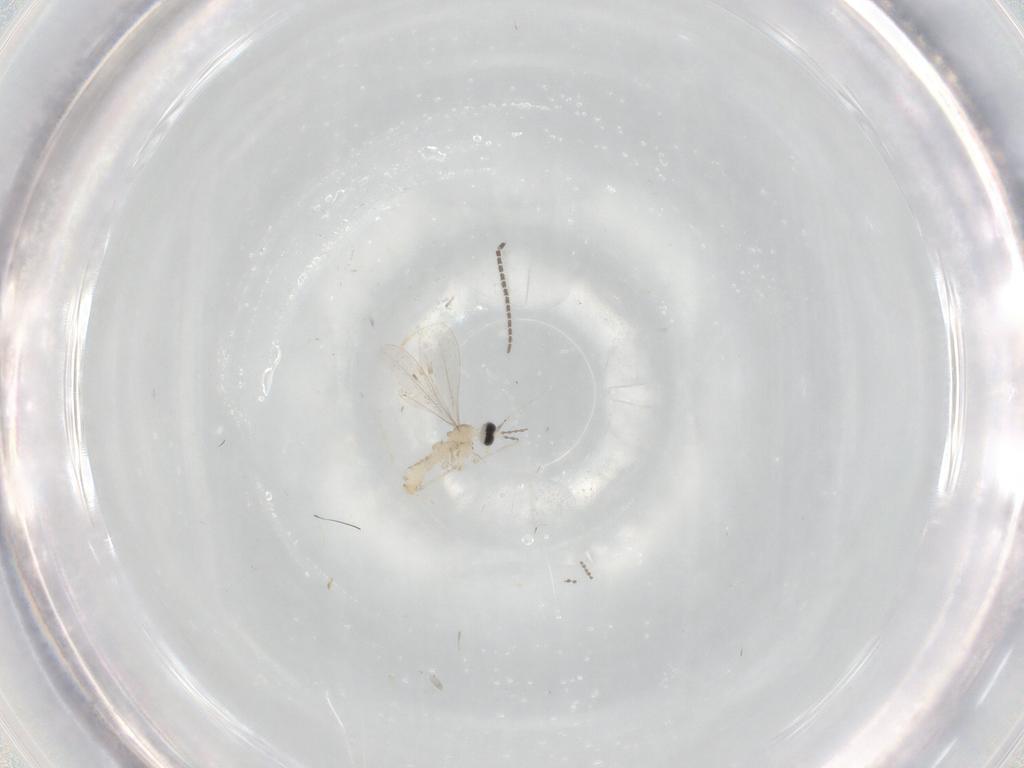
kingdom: Animalia
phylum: Arthropoda
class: Insecta
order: Diptera
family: Cecidomyiidae
